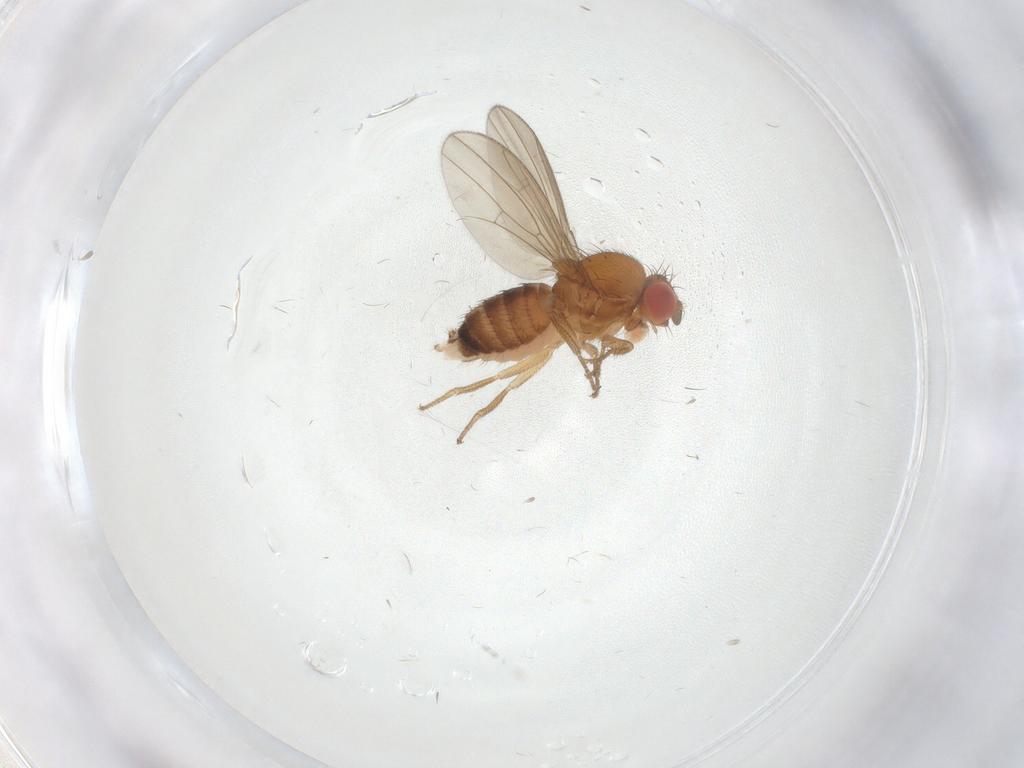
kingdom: Animalia
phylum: Arthropoda
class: Insecta
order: Diptera
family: Drosophilidae
